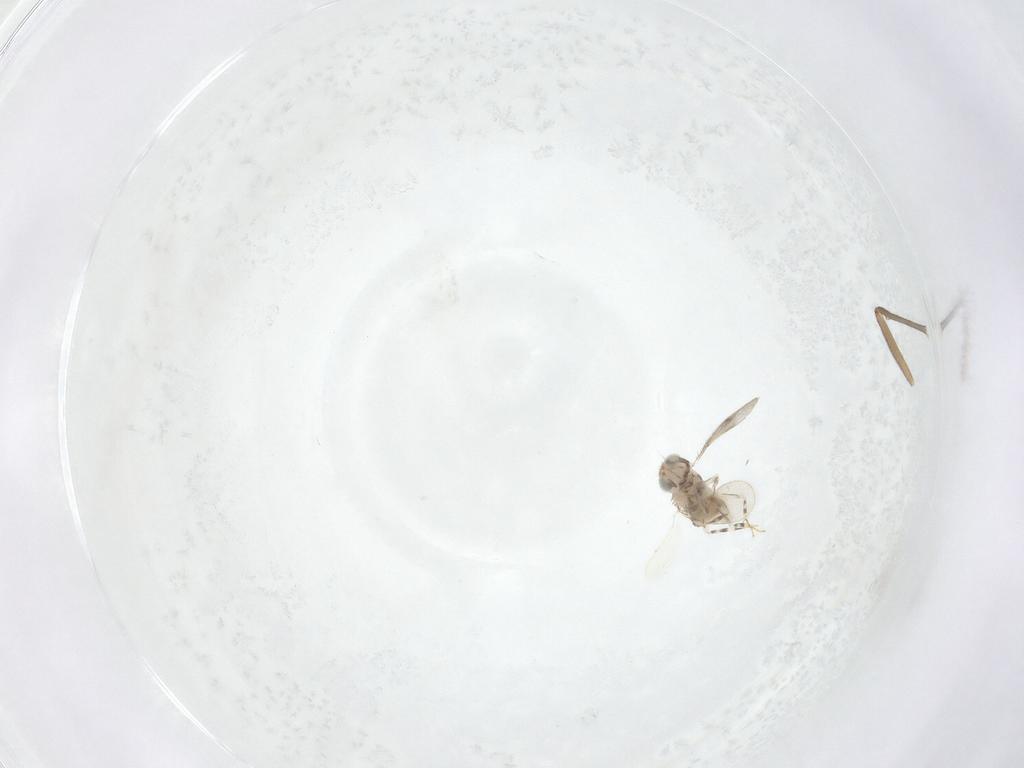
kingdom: Animalia
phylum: Arthropoda
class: Insecta
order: Diptera
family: Sciaridae
